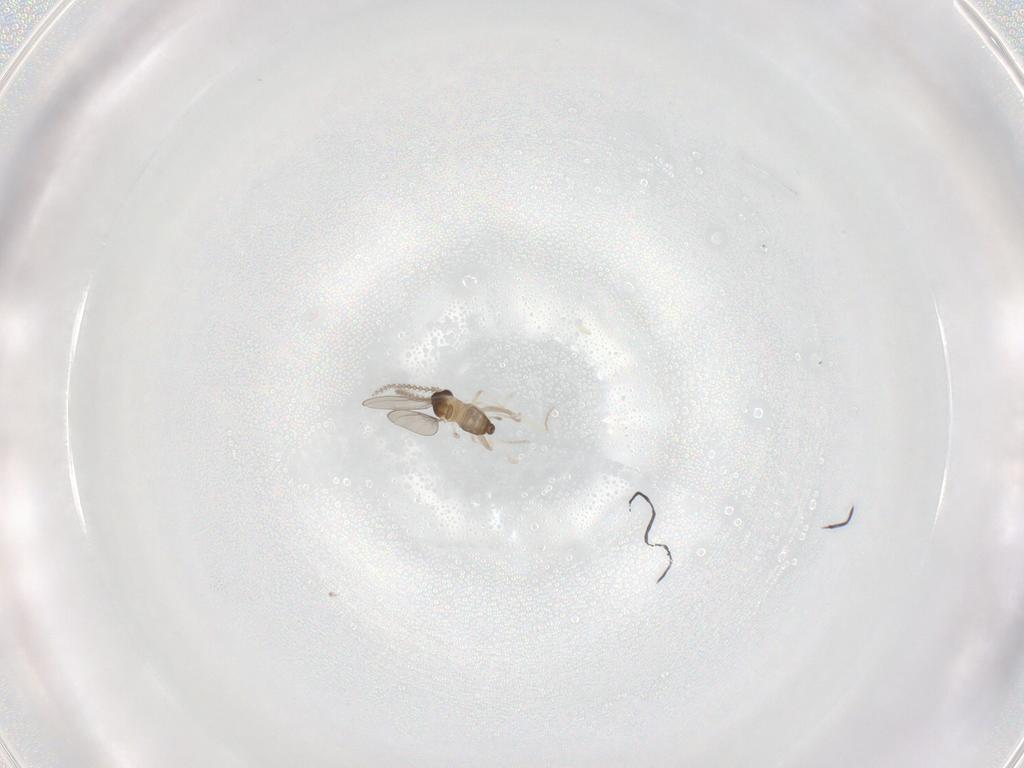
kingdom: Animalia
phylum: Arthropoda
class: Insecta
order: Diptera
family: Cecidomyiidae
